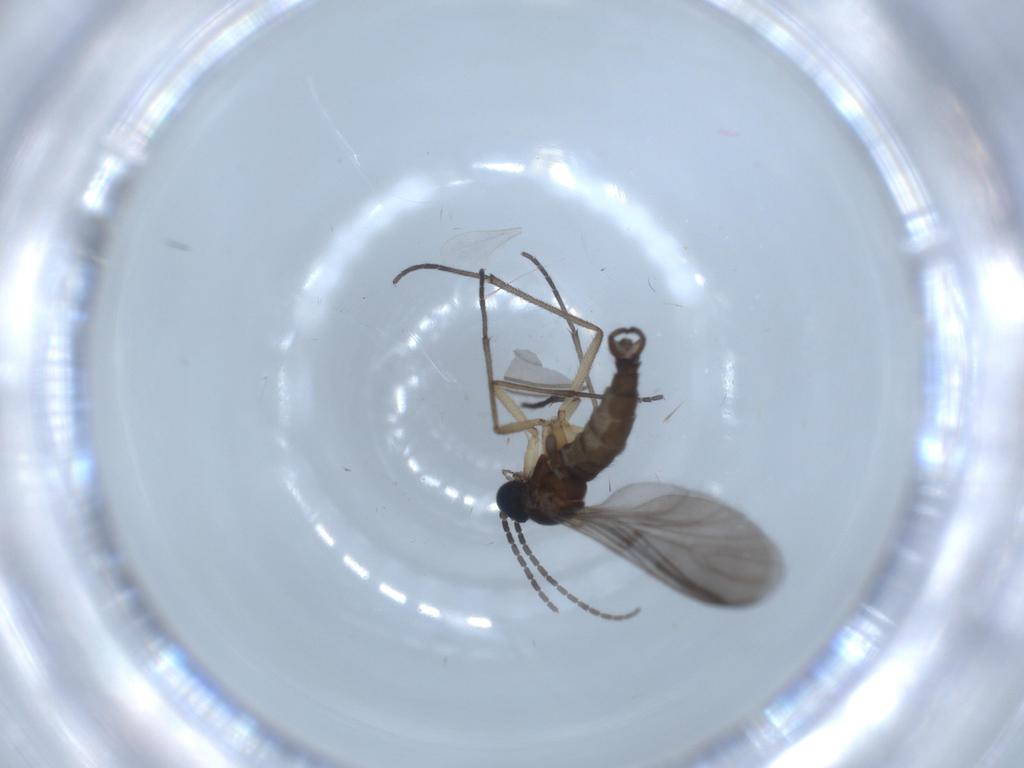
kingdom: Animalia
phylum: Arthropoda
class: Insecta
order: Diptera
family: Sciaridae
